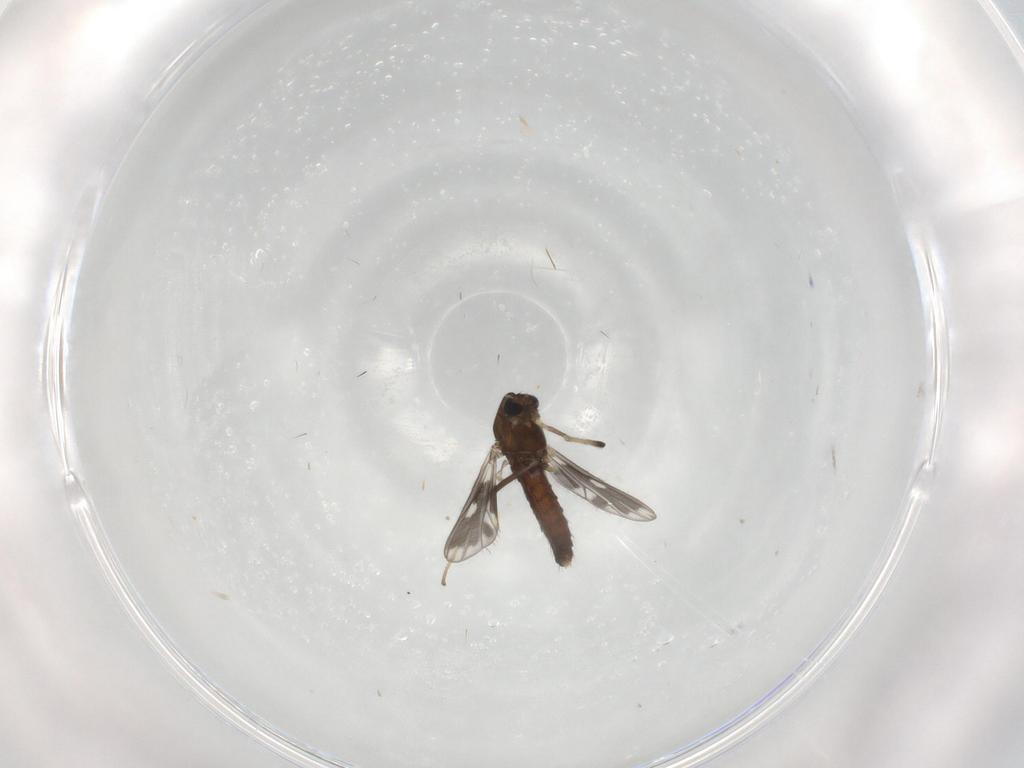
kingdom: Animalia
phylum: Arthropoda
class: Insecta
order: Diptera
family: Chironomidae
